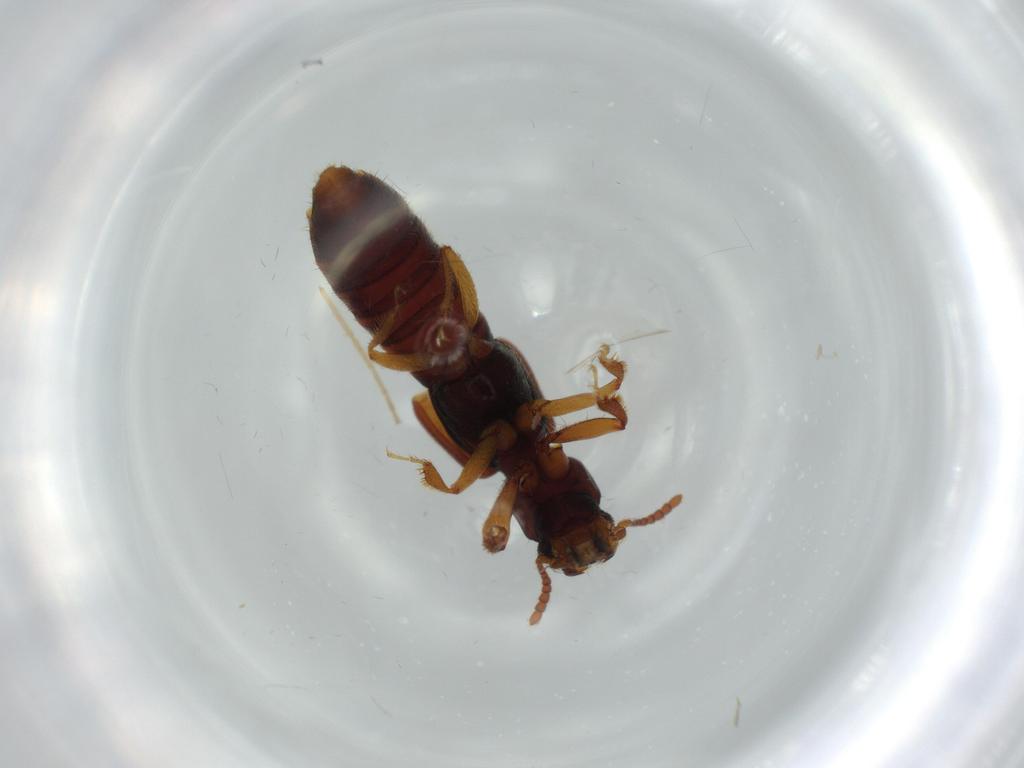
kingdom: Animalia
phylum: Arthropoda
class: Insecta
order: Coleoptera
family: Staphylinidae
